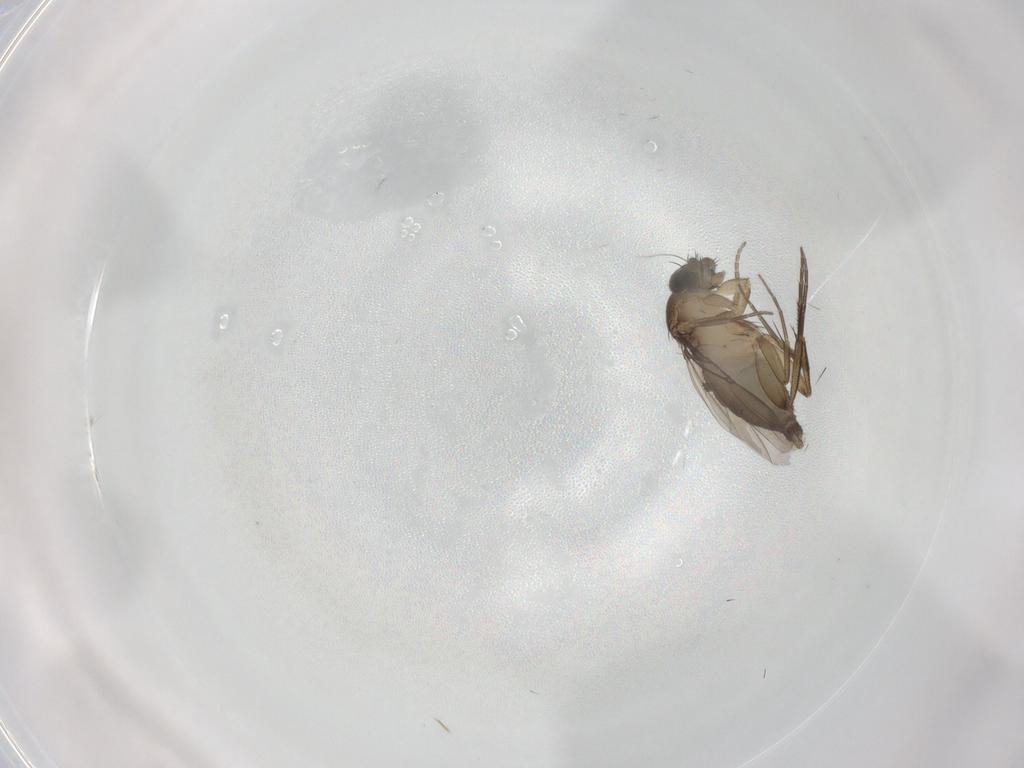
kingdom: Animalia
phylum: Arthropoda
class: Insecta
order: Diptera
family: Phoridae
